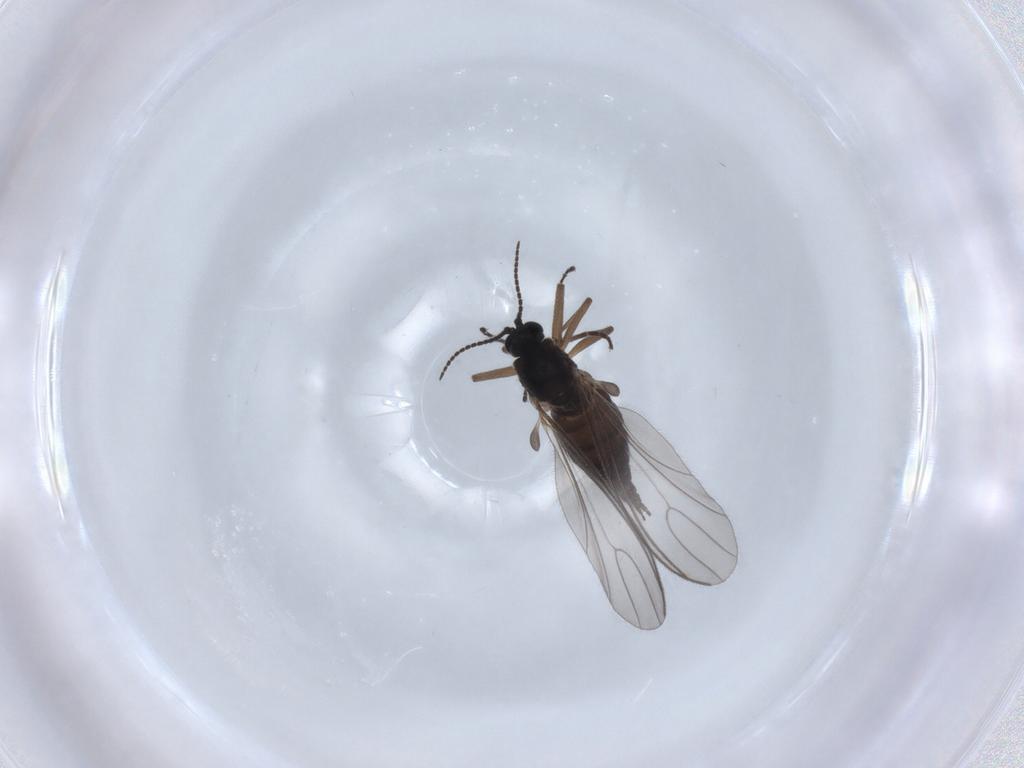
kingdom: Animalia
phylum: Arthropoda
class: Insecta
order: Diptera
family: Sciaridae
